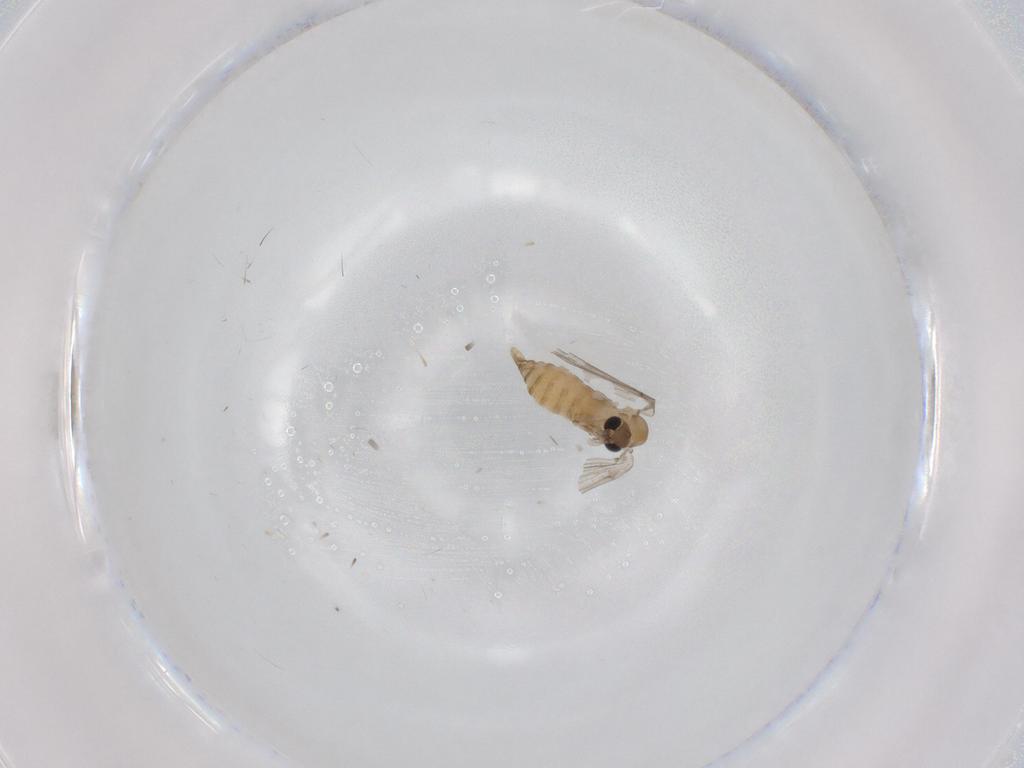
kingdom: Animalia
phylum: Arthropoda
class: Insecta
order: Diptera
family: Psychodidae
